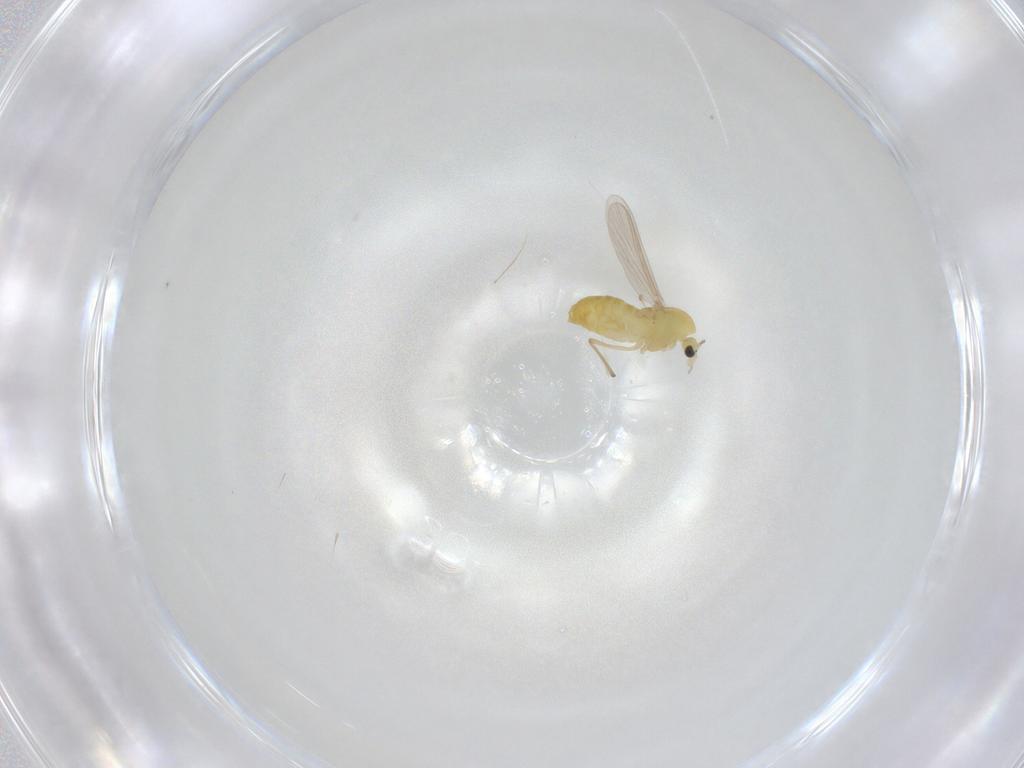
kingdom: Animalia
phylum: Arthropoda
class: Insecta
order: Diptera
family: Chironomidae
